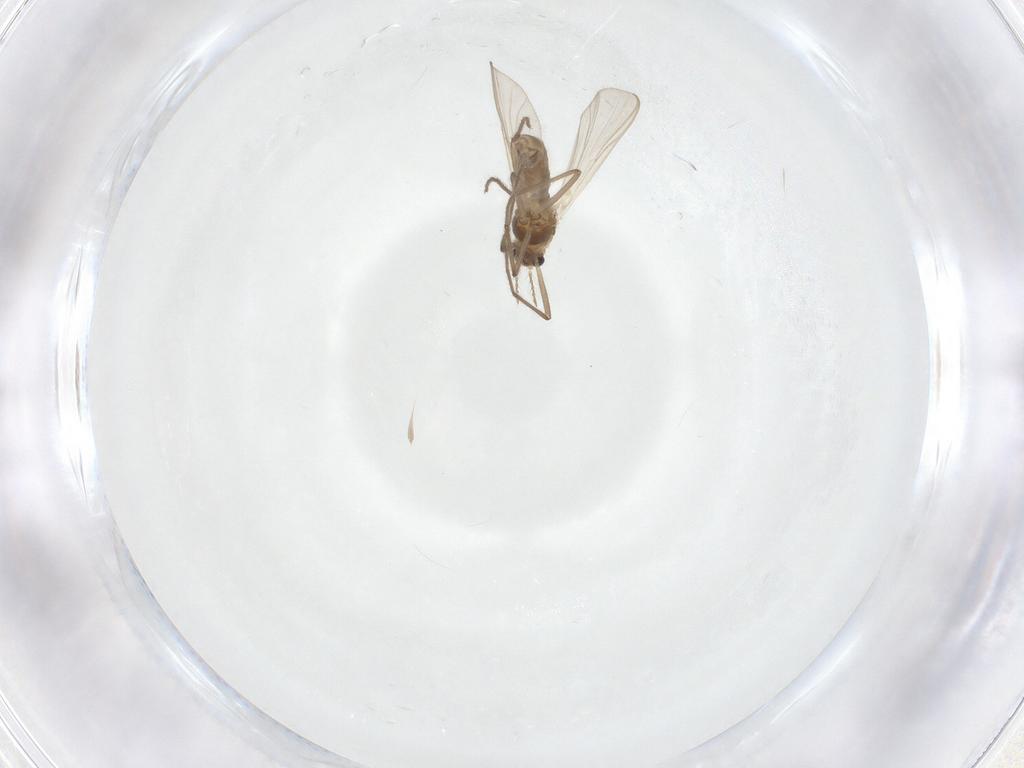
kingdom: Animalia
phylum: Arthropoda
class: Insecta
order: Diptera
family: Chironomidae
